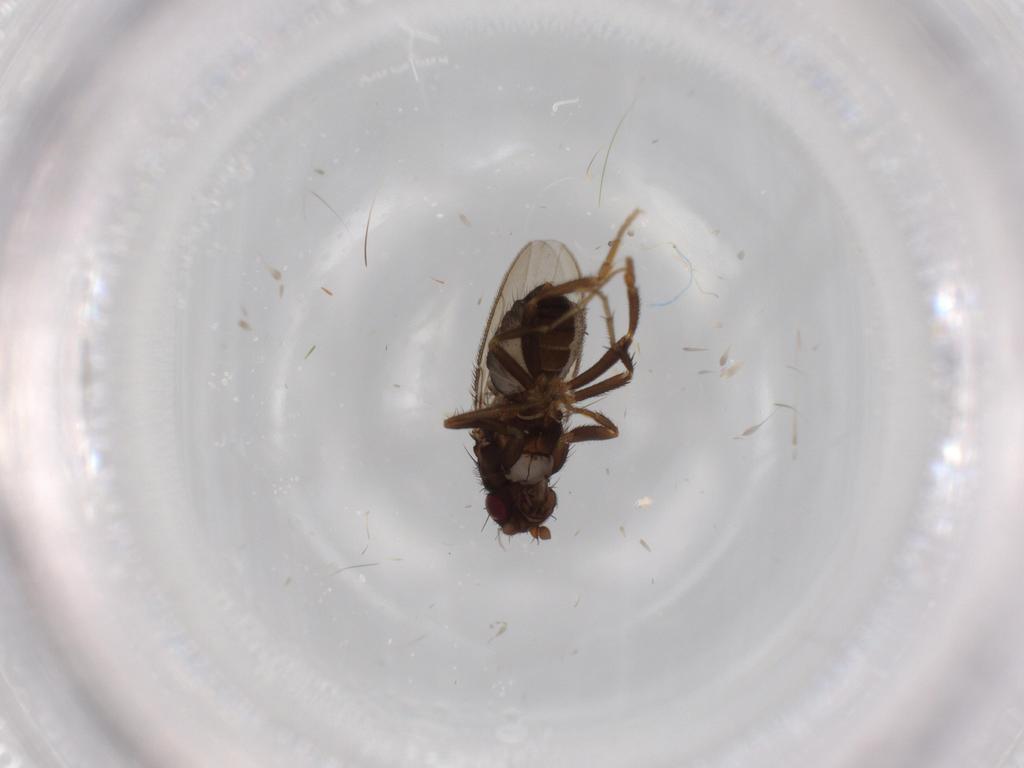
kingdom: Animalia
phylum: Arthropoda
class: Insecta
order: Diptera
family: Sphaeroceridae
